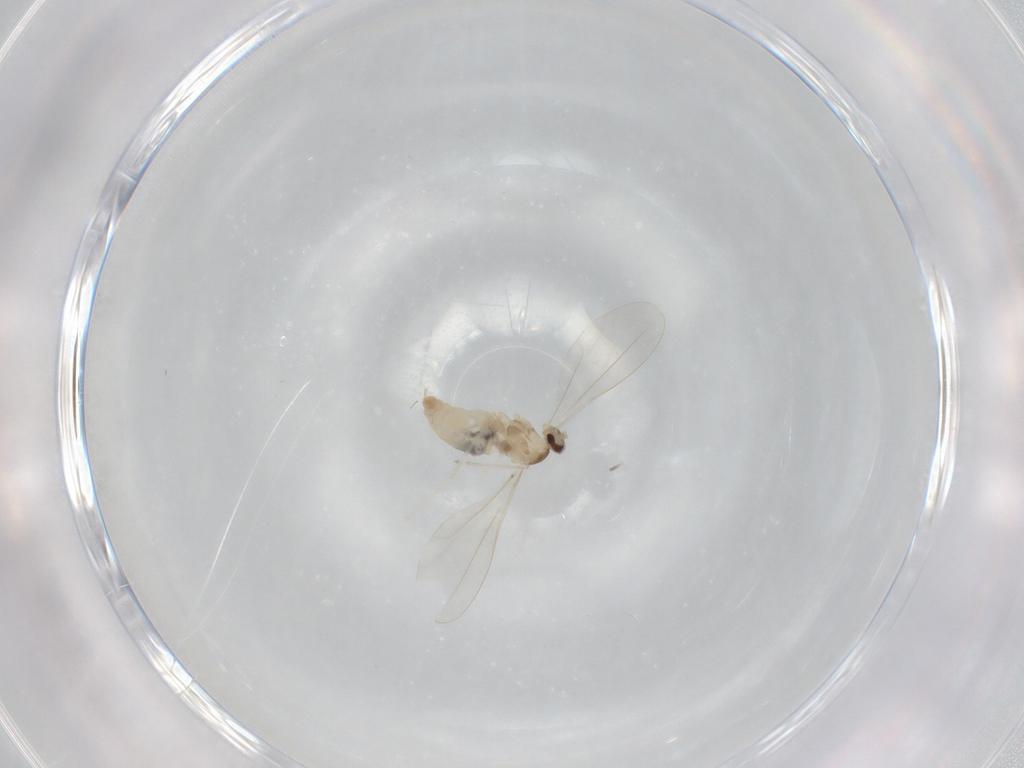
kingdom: Animalia
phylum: Arthropoda
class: Insecta
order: Diptera
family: Cecidomyiidae
